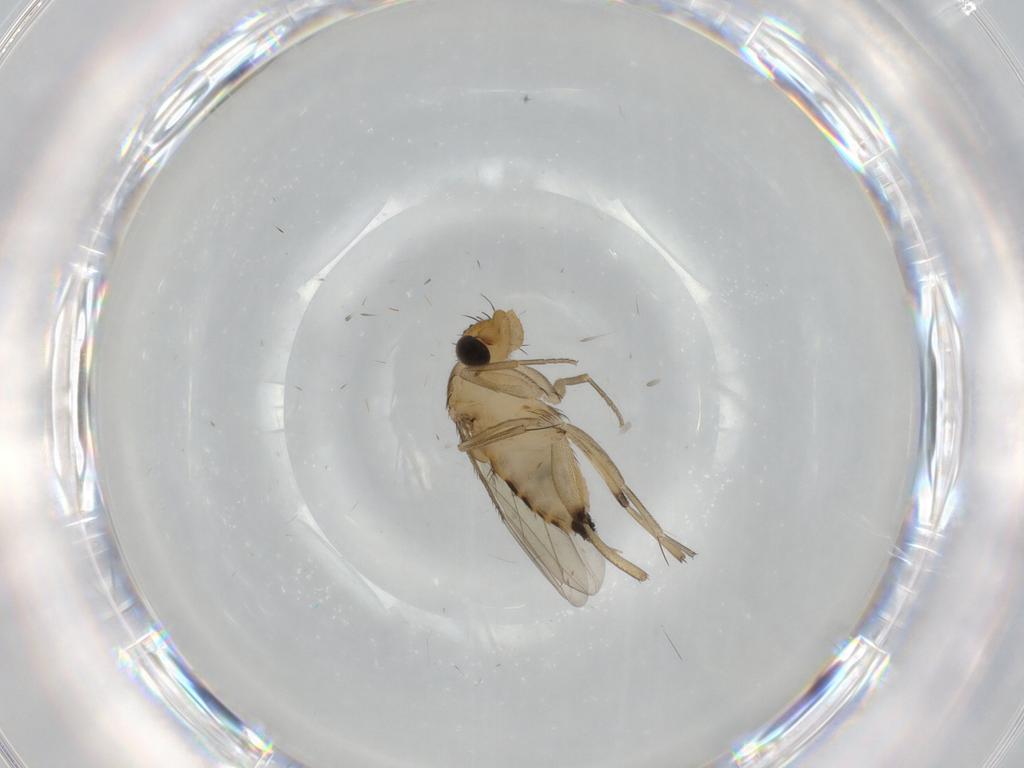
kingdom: Animalia
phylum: Arthropoda
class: Insecta
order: Diptera
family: Phoridae
